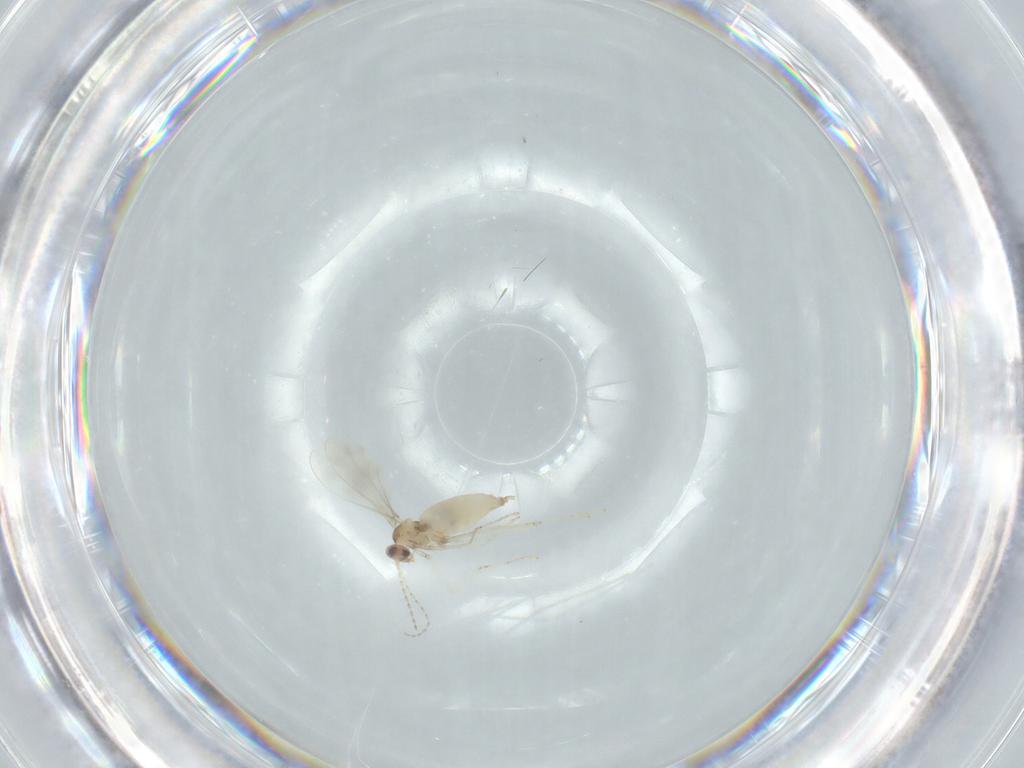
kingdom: Animalia
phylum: Arthropoda
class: Insecta
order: Diptera
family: Cecidomyiidae
